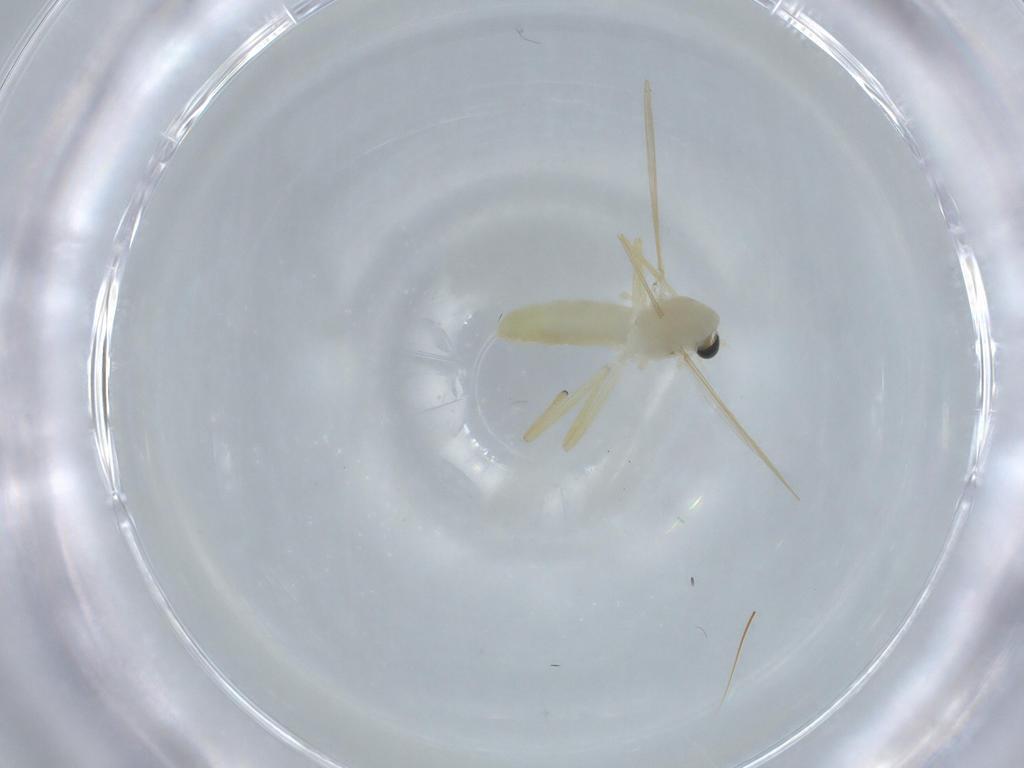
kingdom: Animalia
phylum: Arthropoda
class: Insecta
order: Diptera
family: Chironomidae
